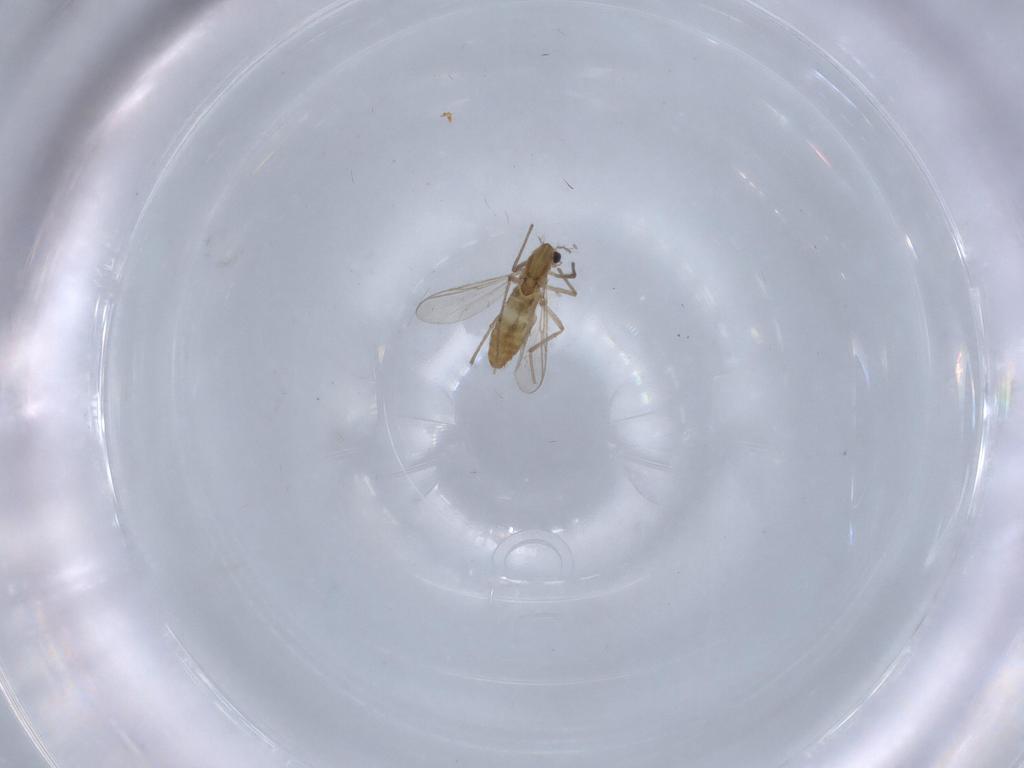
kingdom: Animalia
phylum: Arthropoda
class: Insecta
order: Diptera
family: Chironomidae
